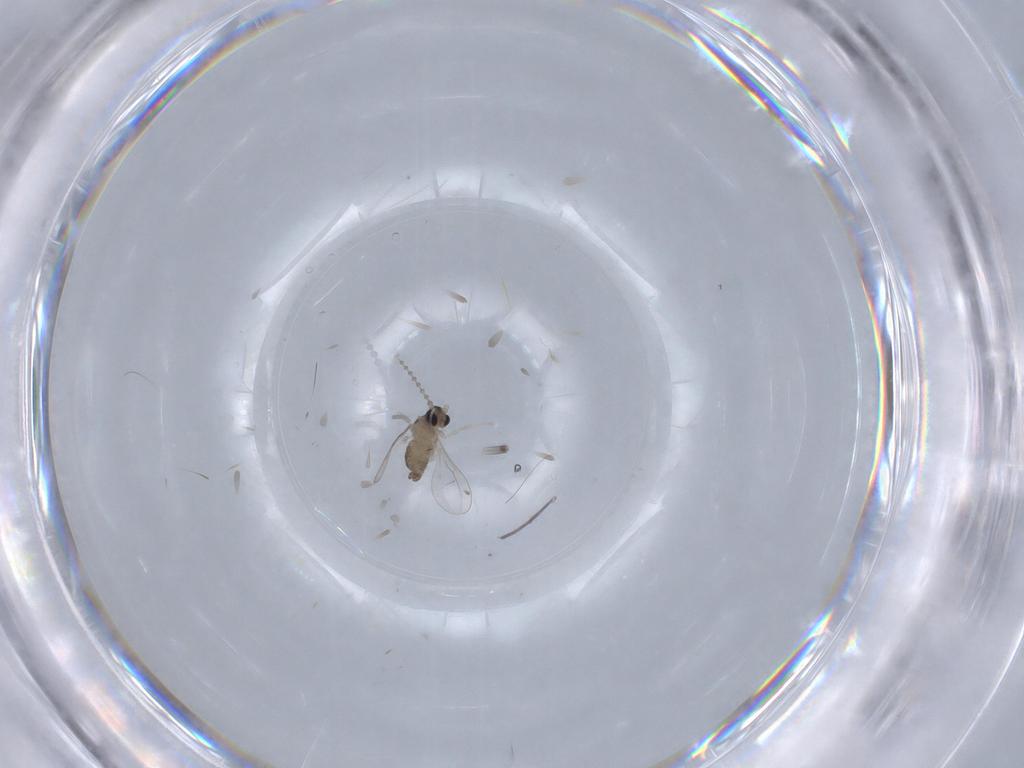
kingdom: Animalia
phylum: Arthropoda
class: Insecta
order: Diptera
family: Cecidomyiidae
